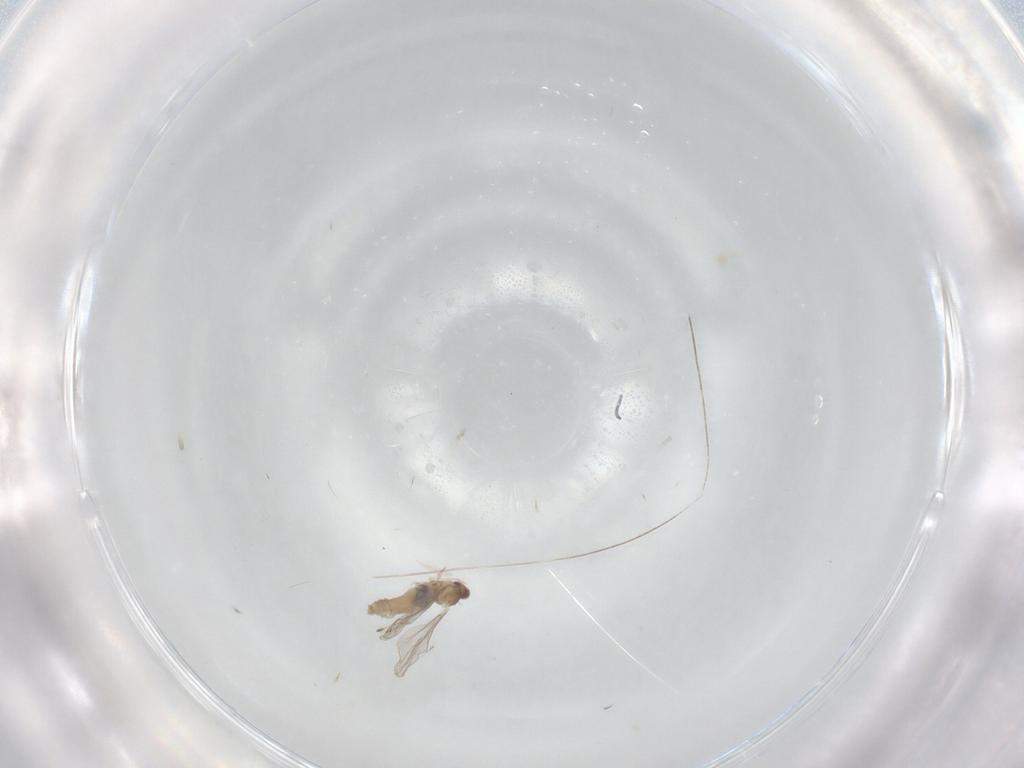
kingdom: Animalia
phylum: Arthropoda
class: Insecta
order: Diptera
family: Cecidomyiidae
